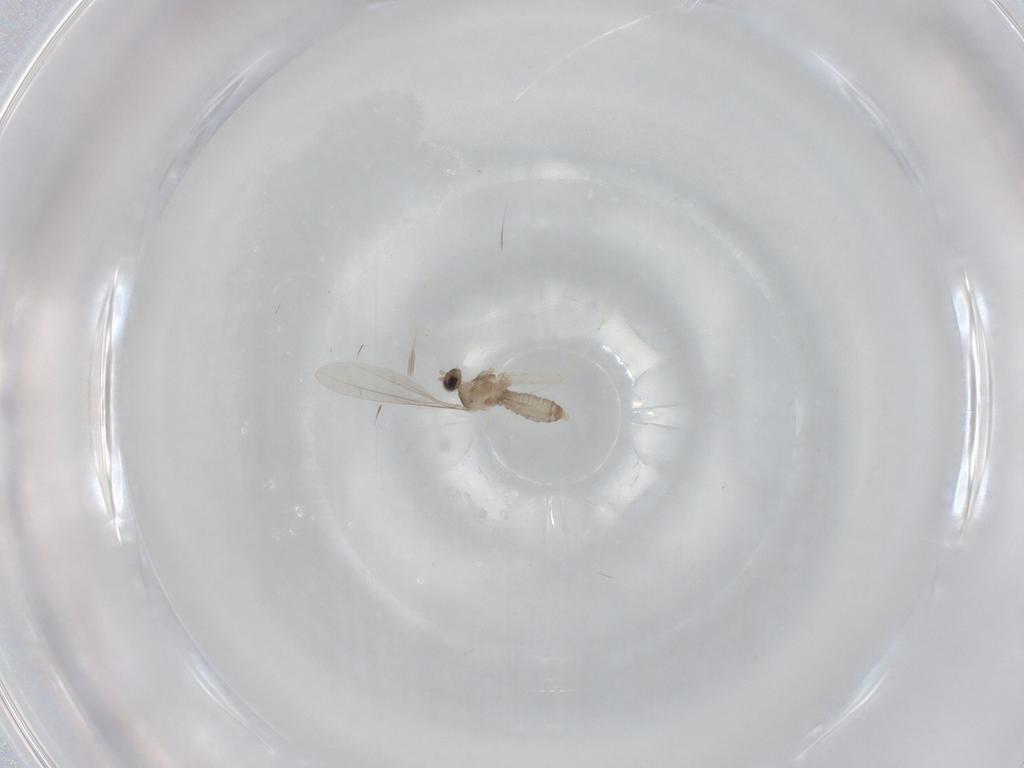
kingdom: Animalia
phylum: Arthropoda
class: Insecta
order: Diptera
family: Cecidomyiidae
